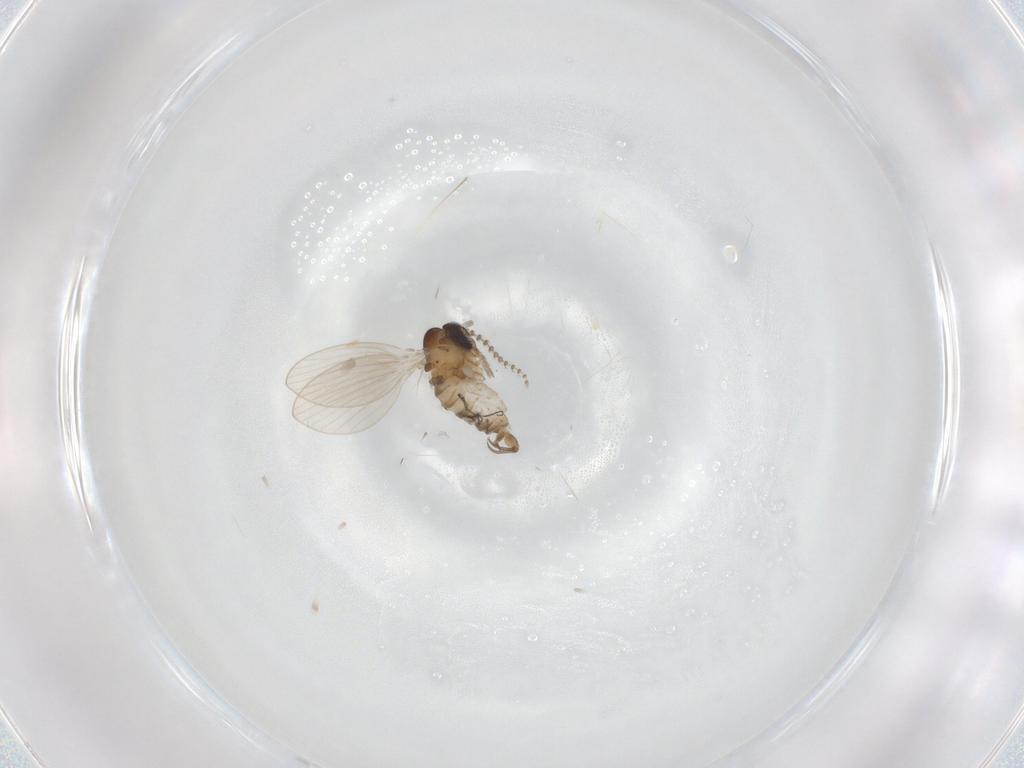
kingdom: Animalia
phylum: Arthropoda
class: Insecta
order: Diptera
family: Psychodidae
